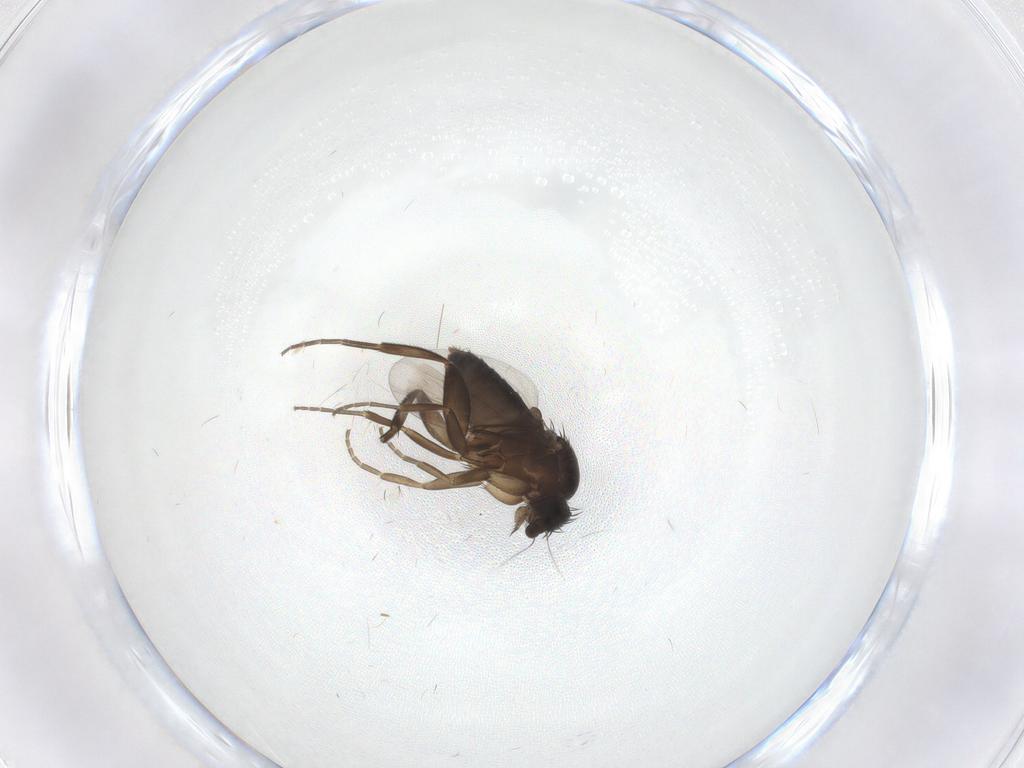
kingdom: Animalia
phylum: Arthropoda
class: Insecta
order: Diptera
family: Phoridae
